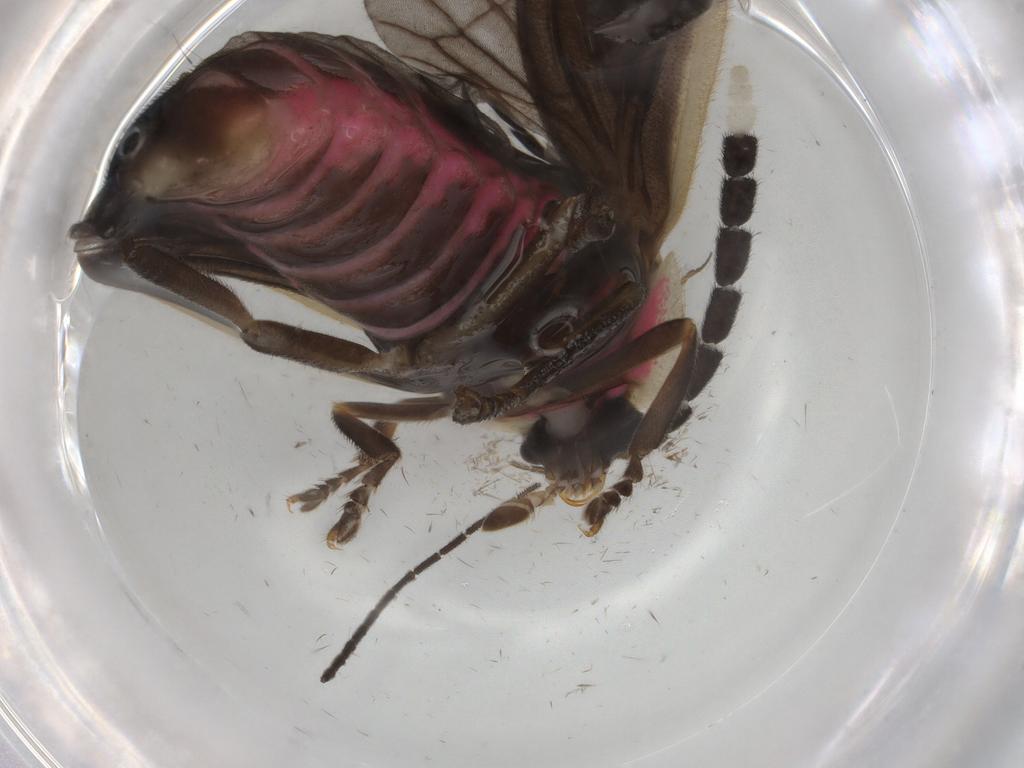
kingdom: Animalia
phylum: Arthropoda
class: Insecta
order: Coleoptera
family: Lampyridae
